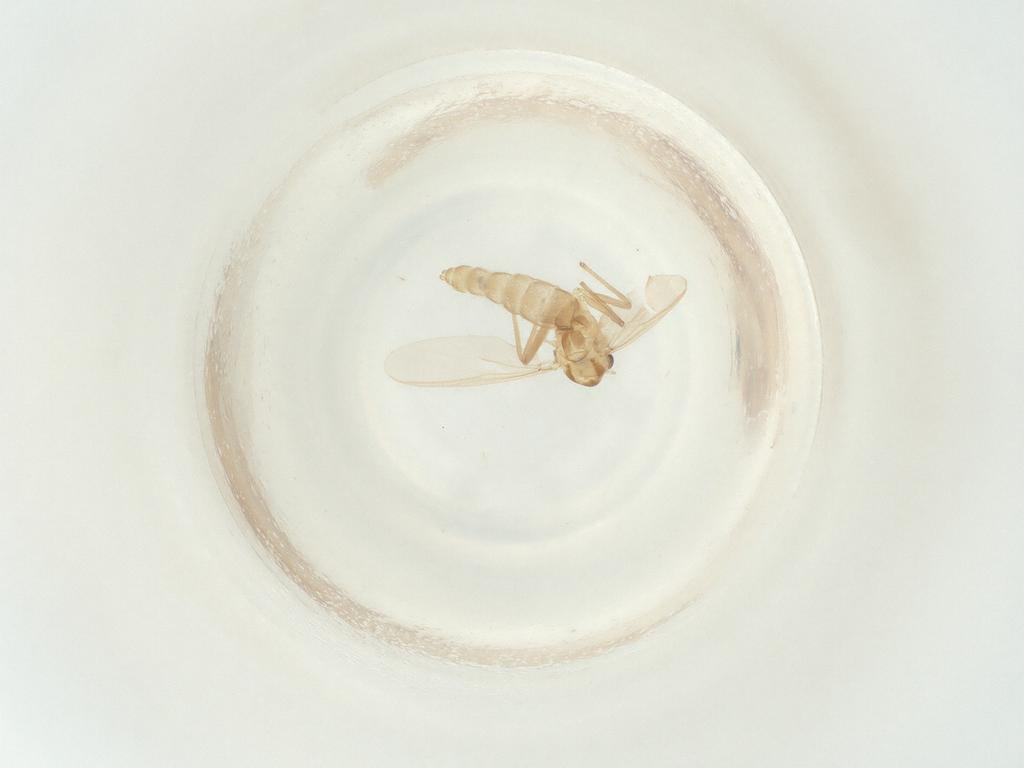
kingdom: Animalia
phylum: Arthropoda
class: Insecta
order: Diptera
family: Chironomidae
